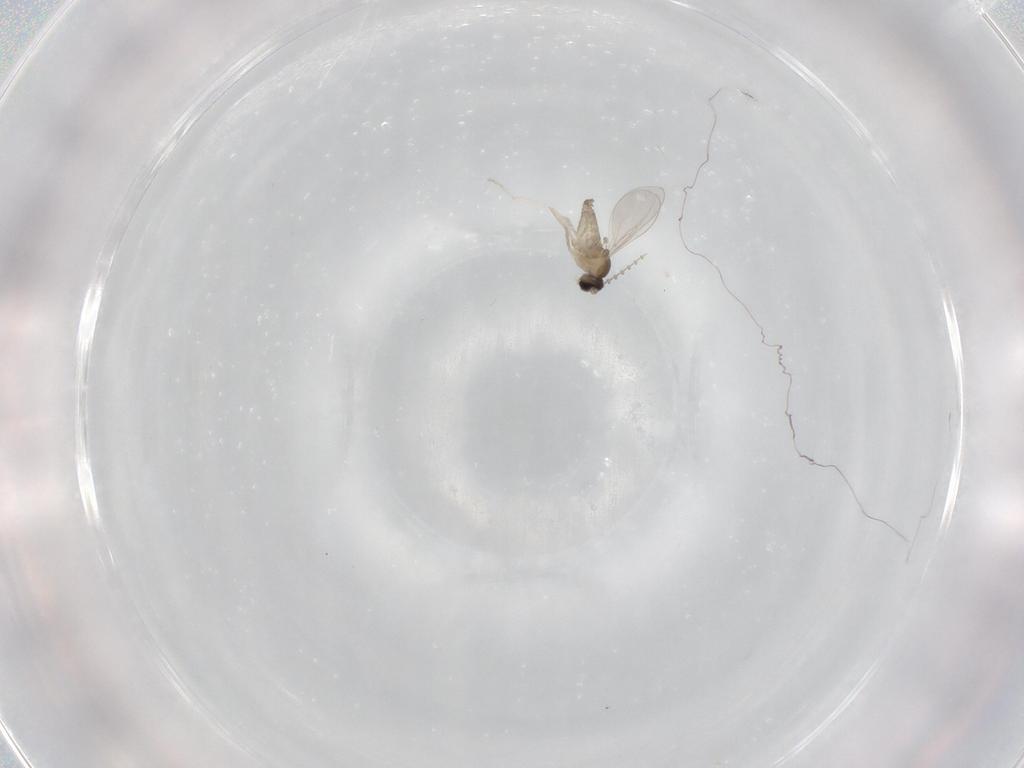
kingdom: Animalia
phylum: Arthropoda
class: Insecta
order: Diptera
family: Cecidomyiidae
